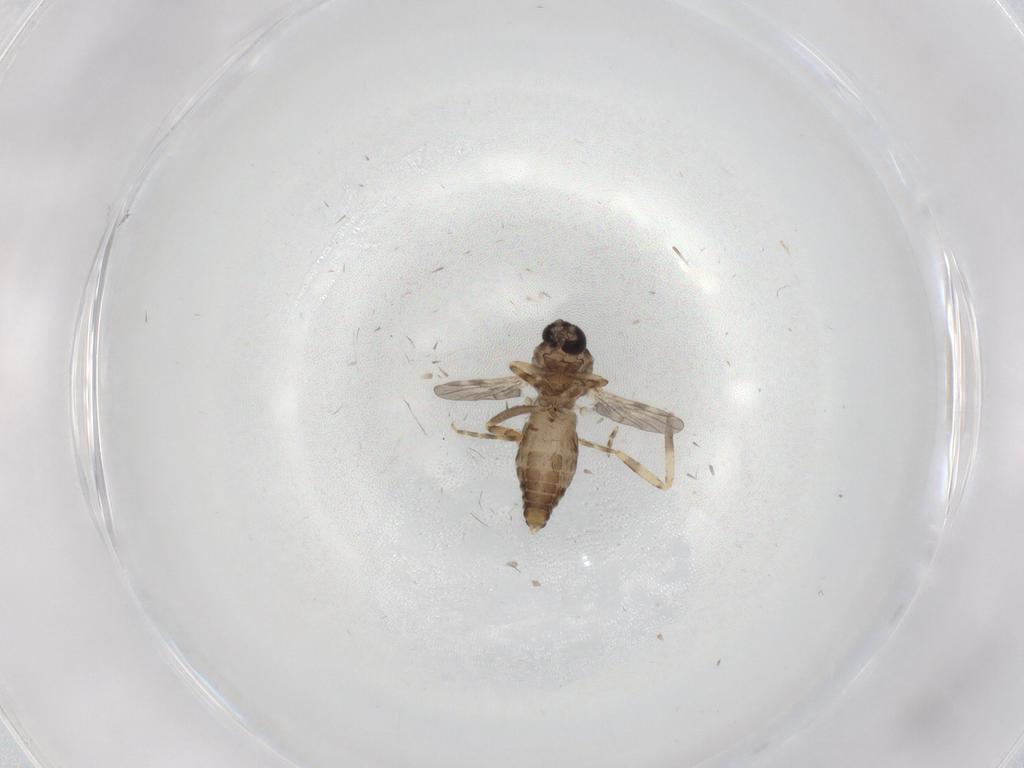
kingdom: Animalia
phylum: Arthropoda
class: Insecta
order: Diptera
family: Ceratopogonidae
